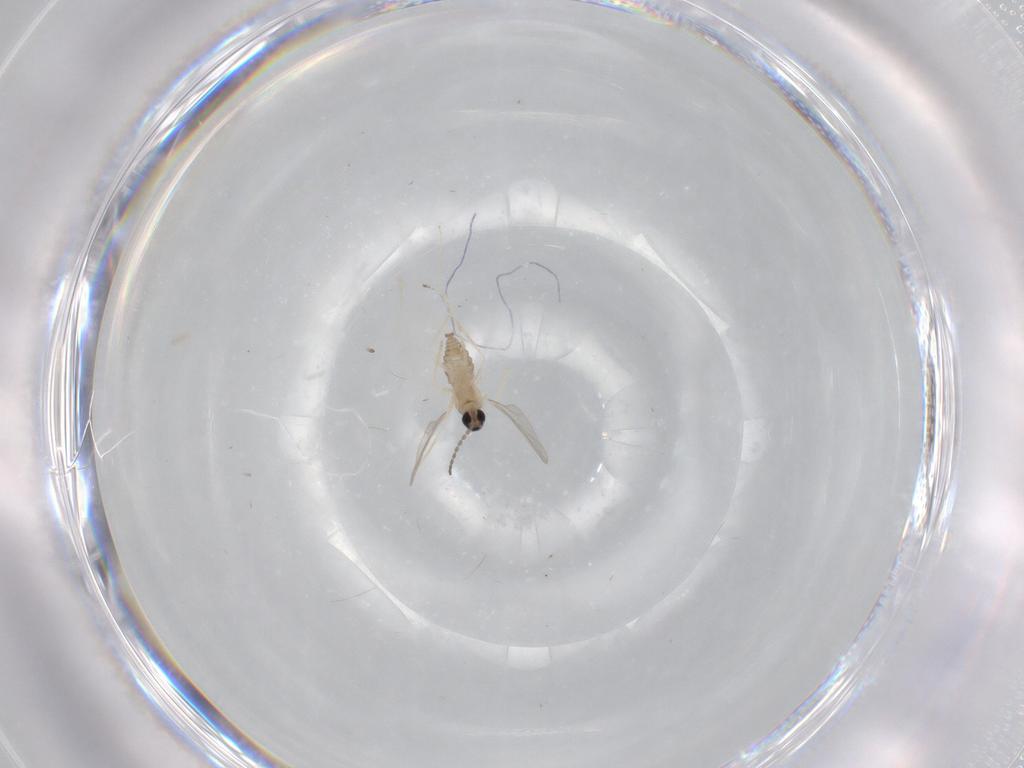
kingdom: Animalia
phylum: Arthropoda
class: Insecta
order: Diptera
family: Cecidomyiidae
